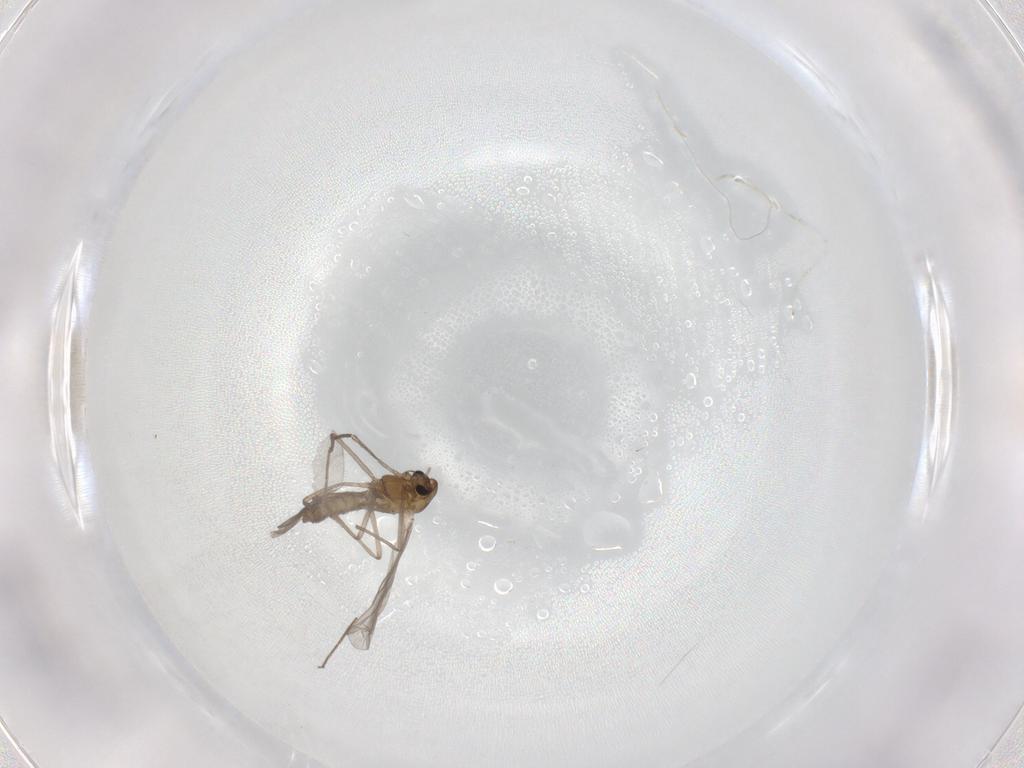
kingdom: Animalia
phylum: Arthropoda
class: Insecta
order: Diptera
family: Chironomidae
